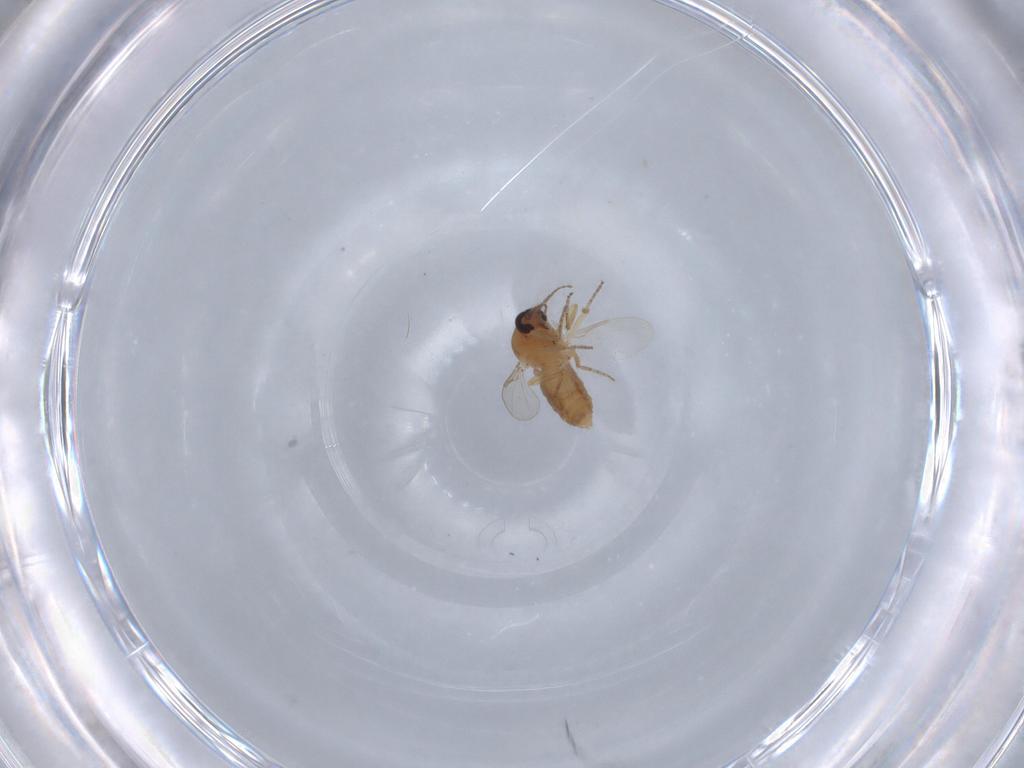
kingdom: Animalia
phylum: Arthropoda
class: Insecta
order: Diptera
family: Ceratopogonidae
